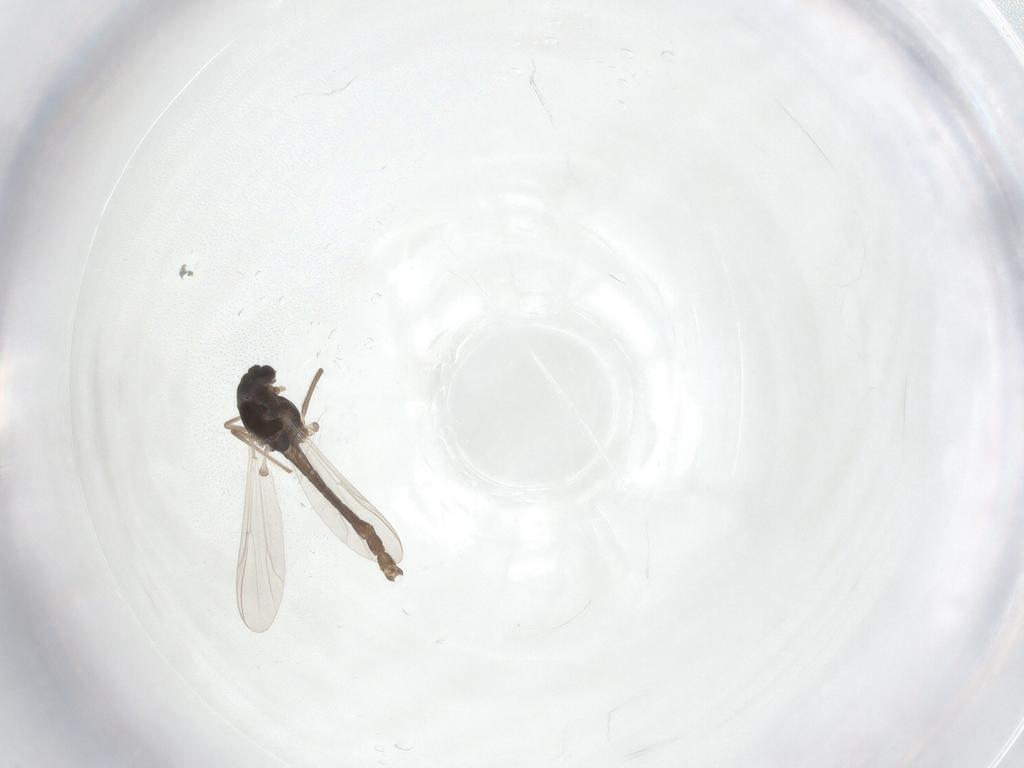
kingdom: Animalia
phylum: Arthropoda
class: Insecta
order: Diptera
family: Chironomidae
